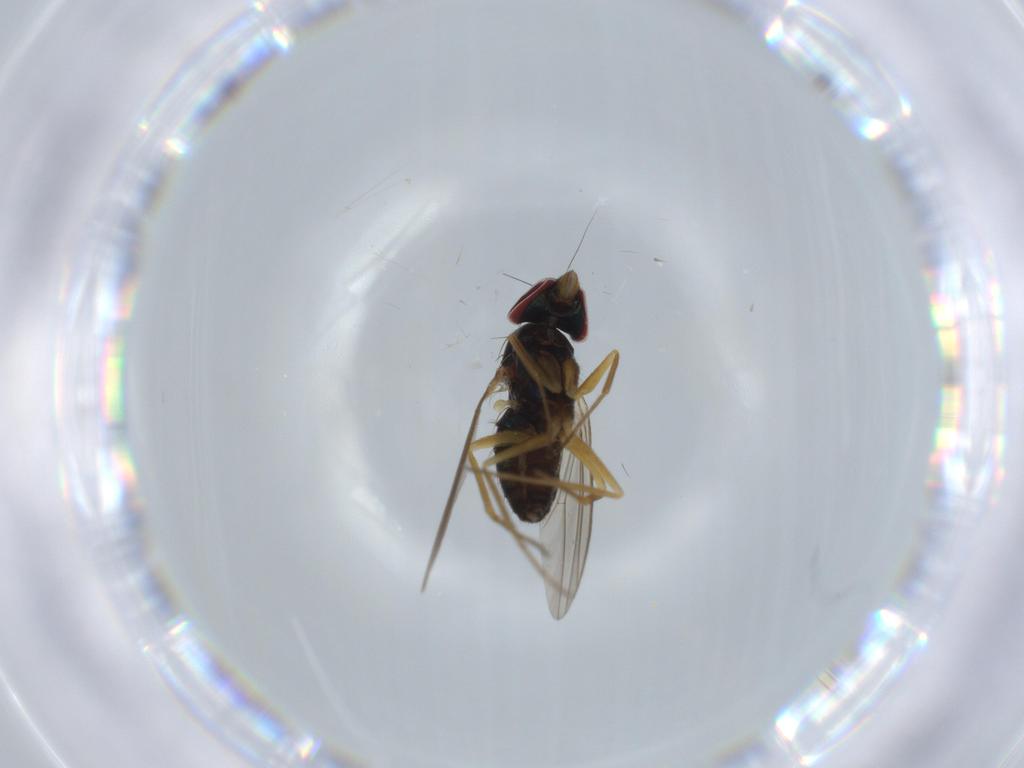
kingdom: Animalia
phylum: Arthropoda
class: Insecta
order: Diptera
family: Dolichopodidae
